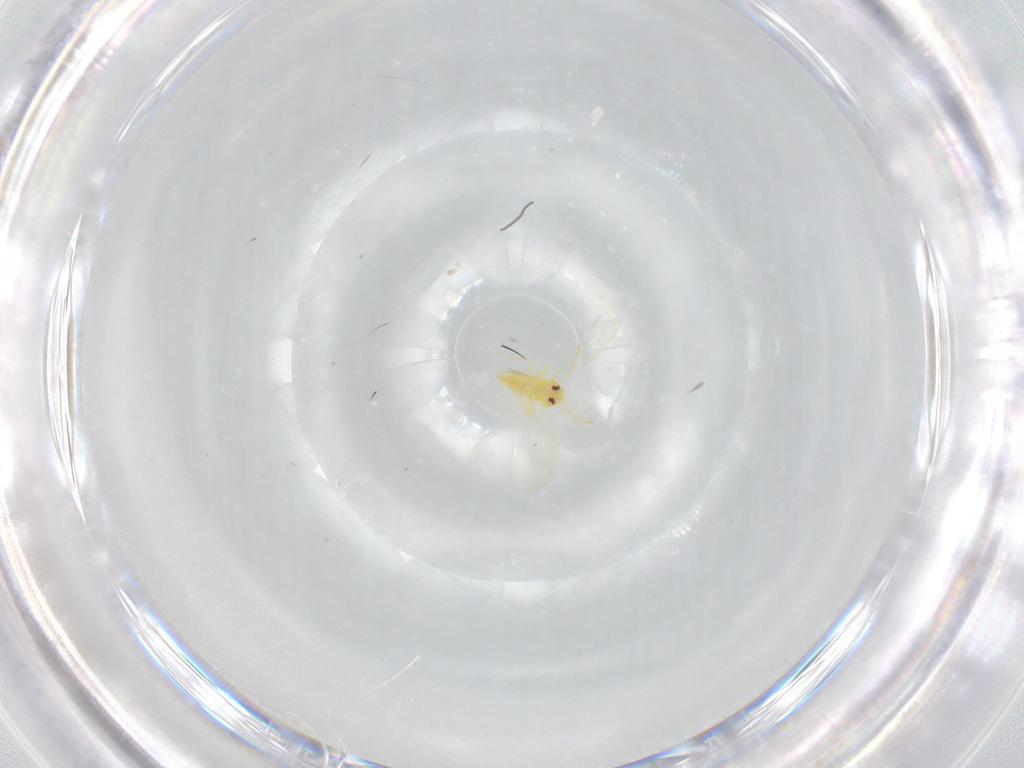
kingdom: Animalia
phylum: Arthropoda
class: Insecta
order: Hemiptera
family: Aleyrodidae
